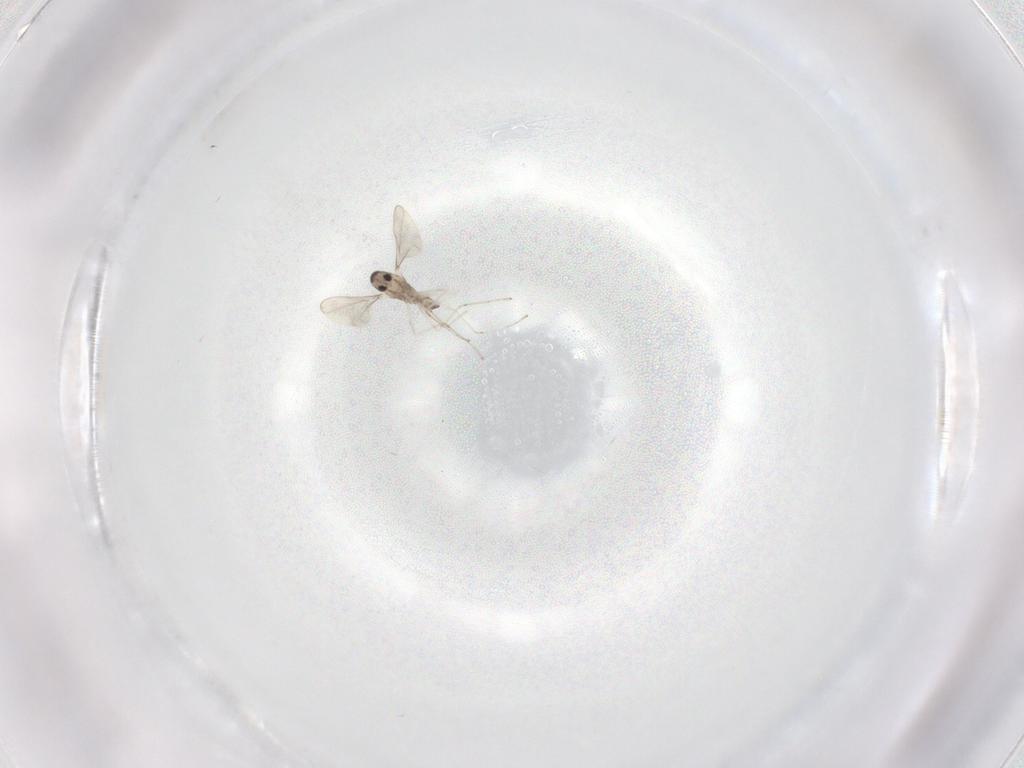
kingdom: Animalia
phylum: Arthropoda
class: Insecta
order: Diptera
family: Cecidomyiidae
